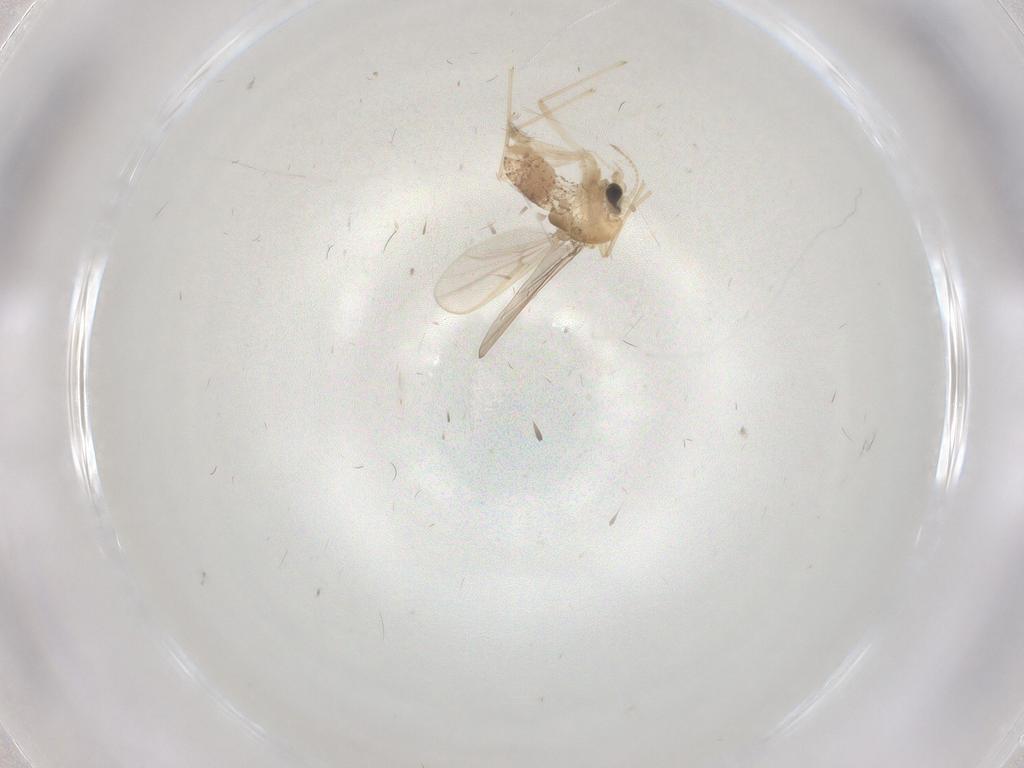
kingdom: Animalia
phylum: Arthropoda
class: Insecta
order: Diptera
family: Chironomidae
